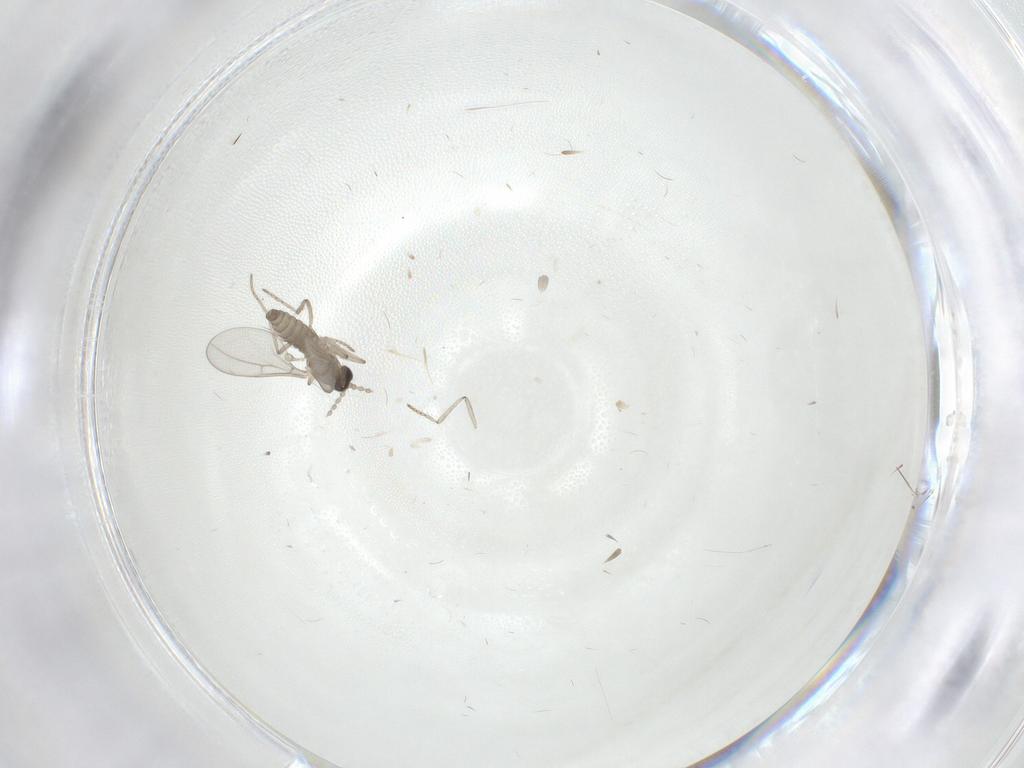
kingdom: Animalia
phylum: Arthropoda
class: Insecta
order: Diptera
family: Cecidomyiidae
